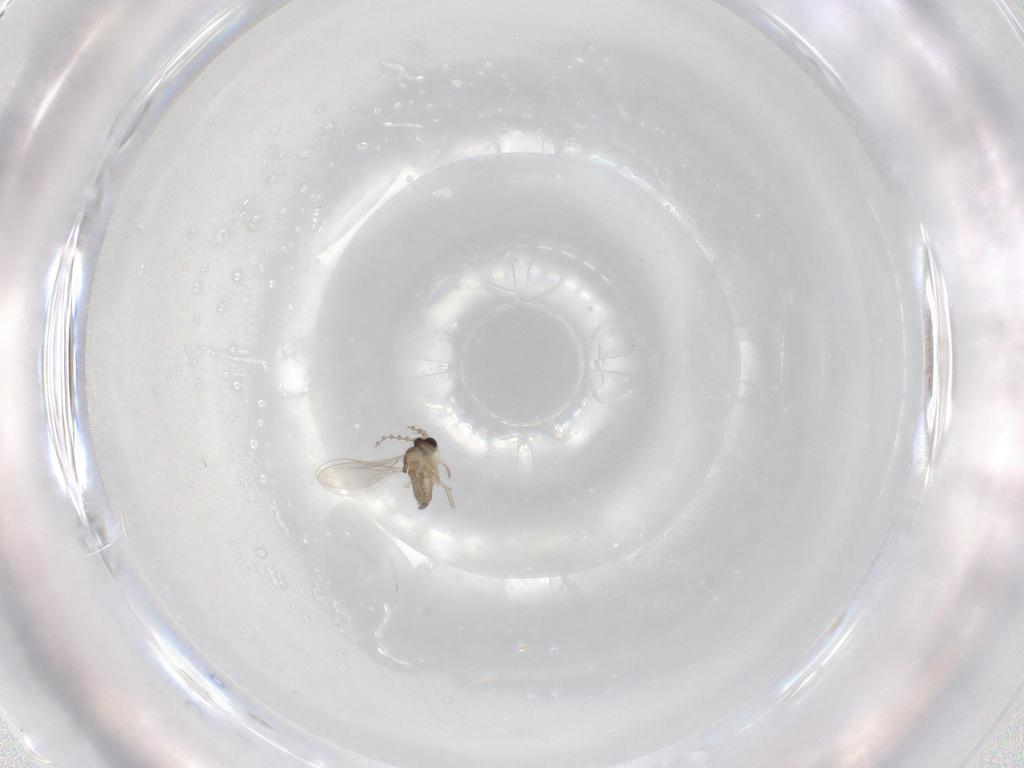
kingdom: Animalia
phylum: Arthropoda
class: Insecta
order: Diptera
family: Cecidomyiidae
